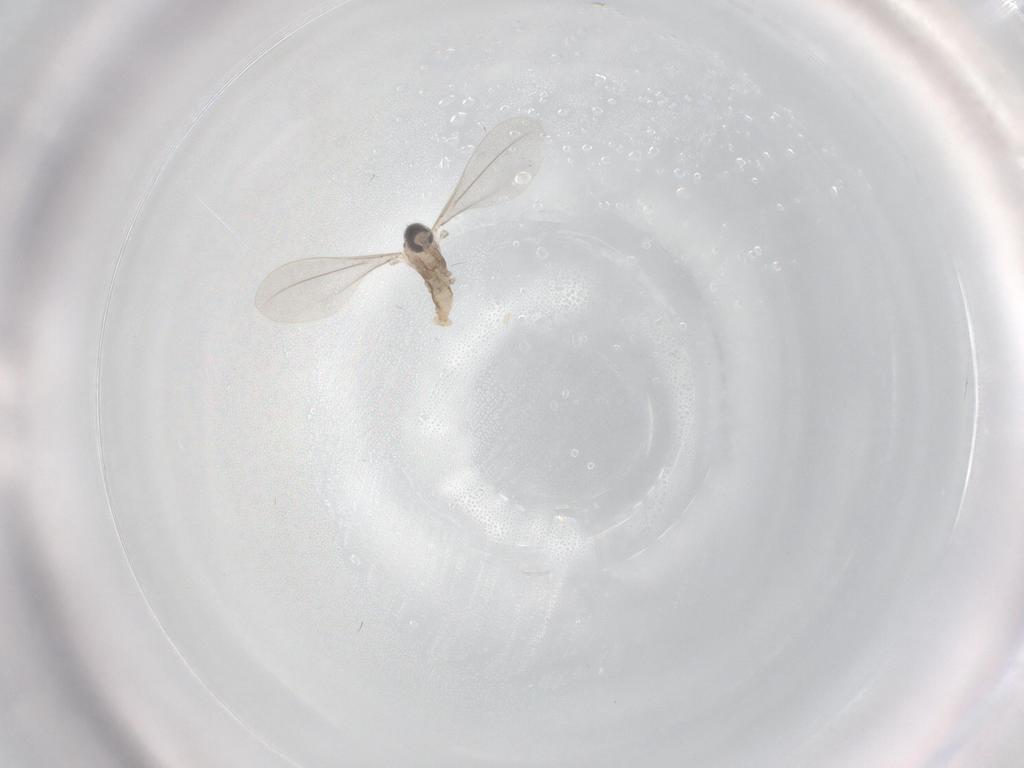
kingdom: Animalia
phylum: Arthropoda
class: Insecta
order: Diptera
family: Cecidomyiidae
